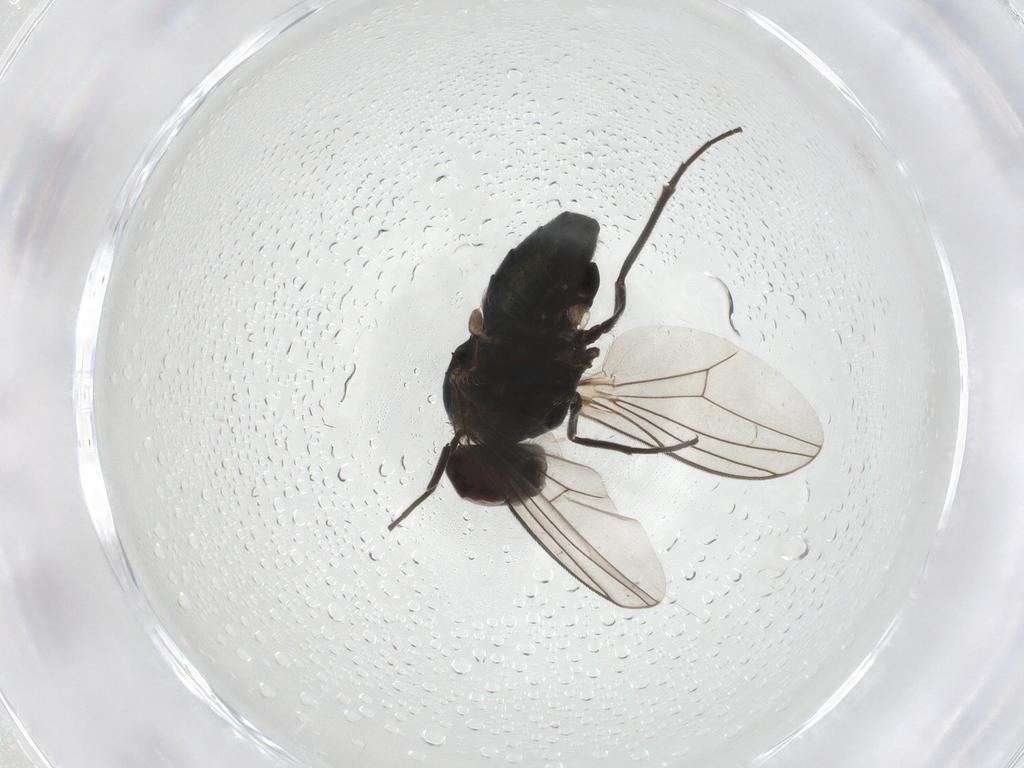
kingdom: Animalia
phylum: Arthropoda
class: Insecta
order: Diptera
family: Dolichopodidae
